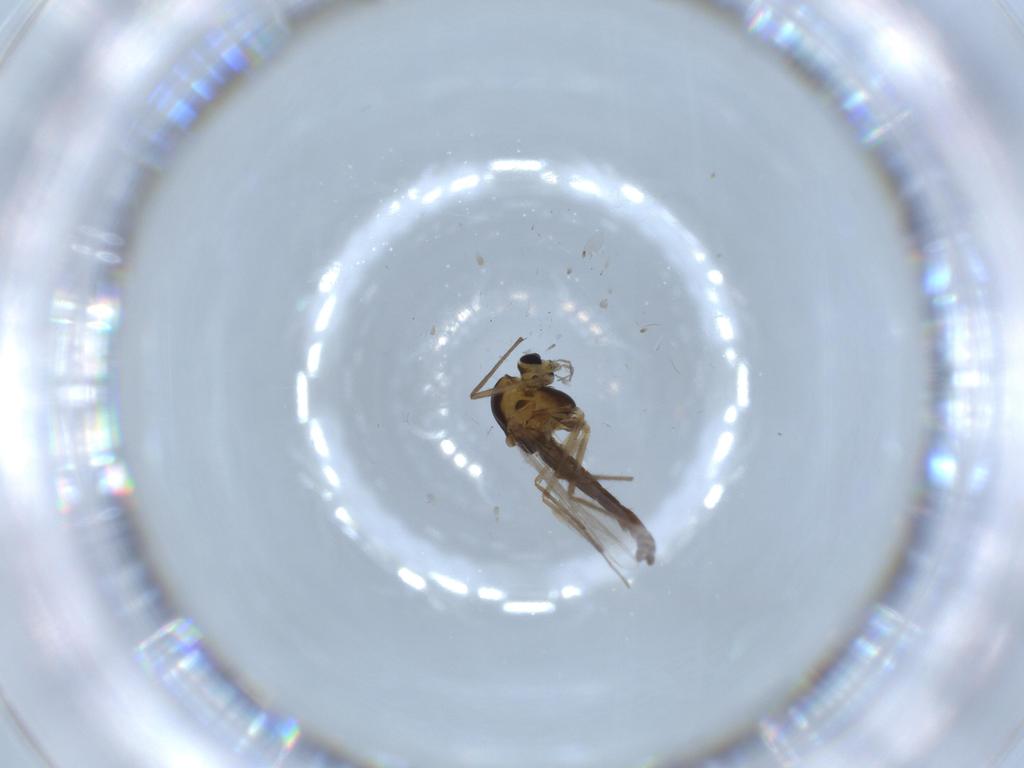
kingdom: Animalia
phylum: Arthropoda
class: Insecta
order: Diptera
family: Chironomidae
